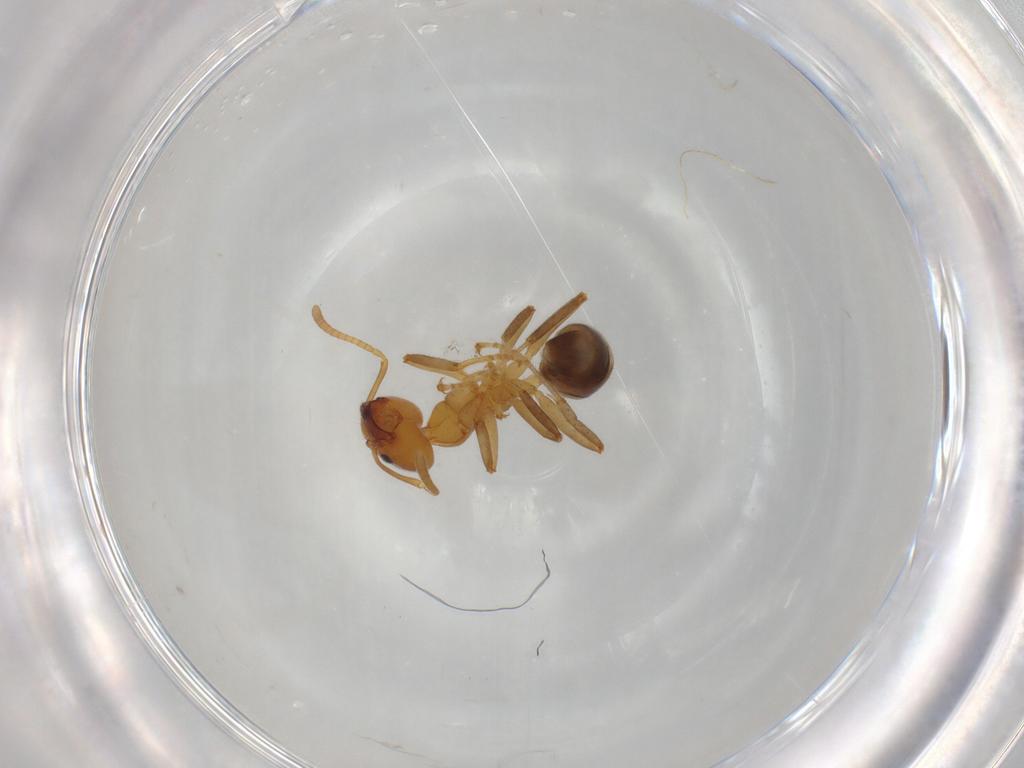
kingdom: Animalia
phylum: Arthropoda
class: Insecta
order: Hymenoptera
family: Formicidae
